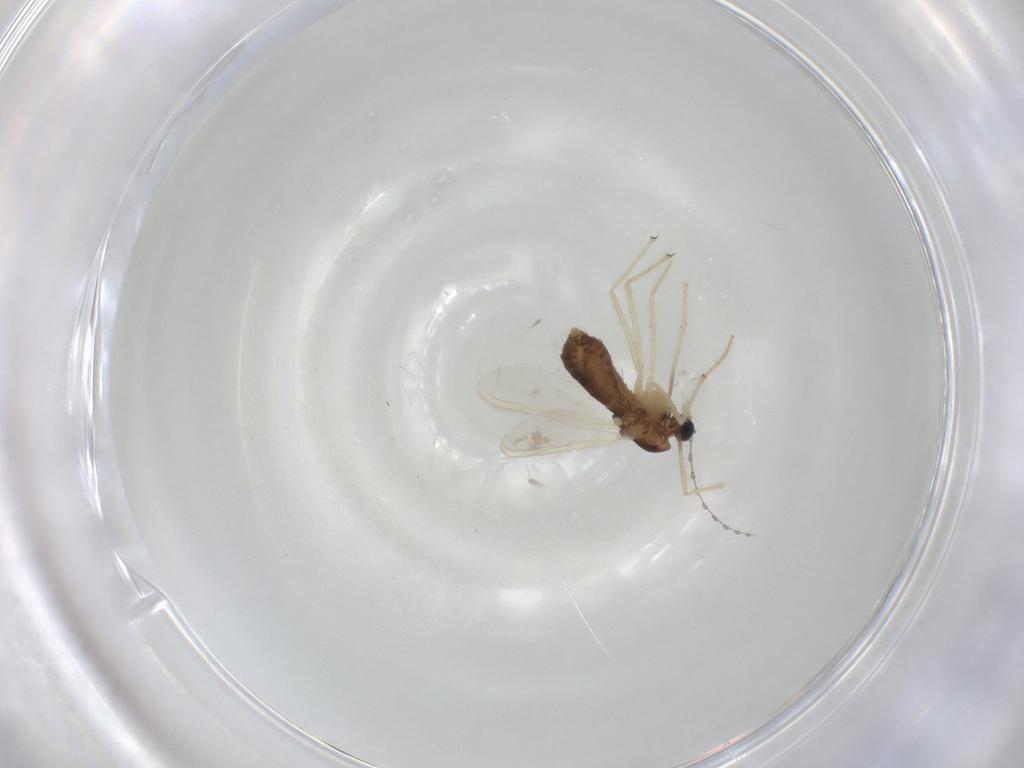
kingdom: Animalia
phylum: Arthropoda
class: Insecta
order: Diptera
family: Chironomidae
